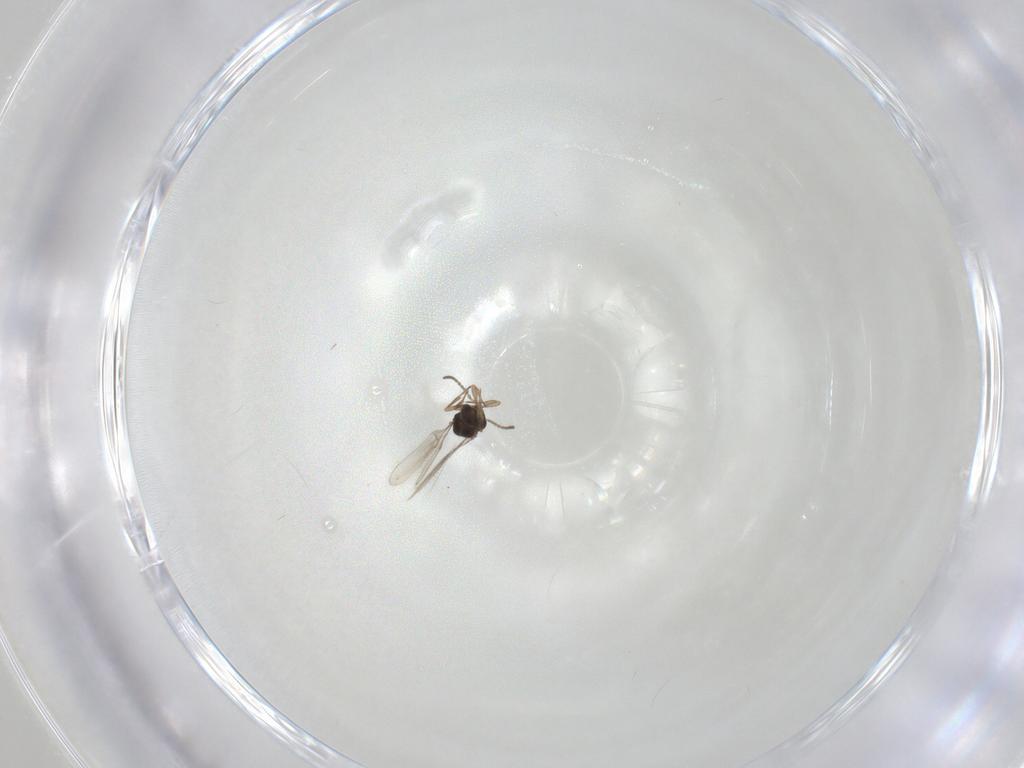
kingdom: Animalia
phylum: Arthropoda
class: Insecta
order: Hymenoptera
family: Scelionidae
